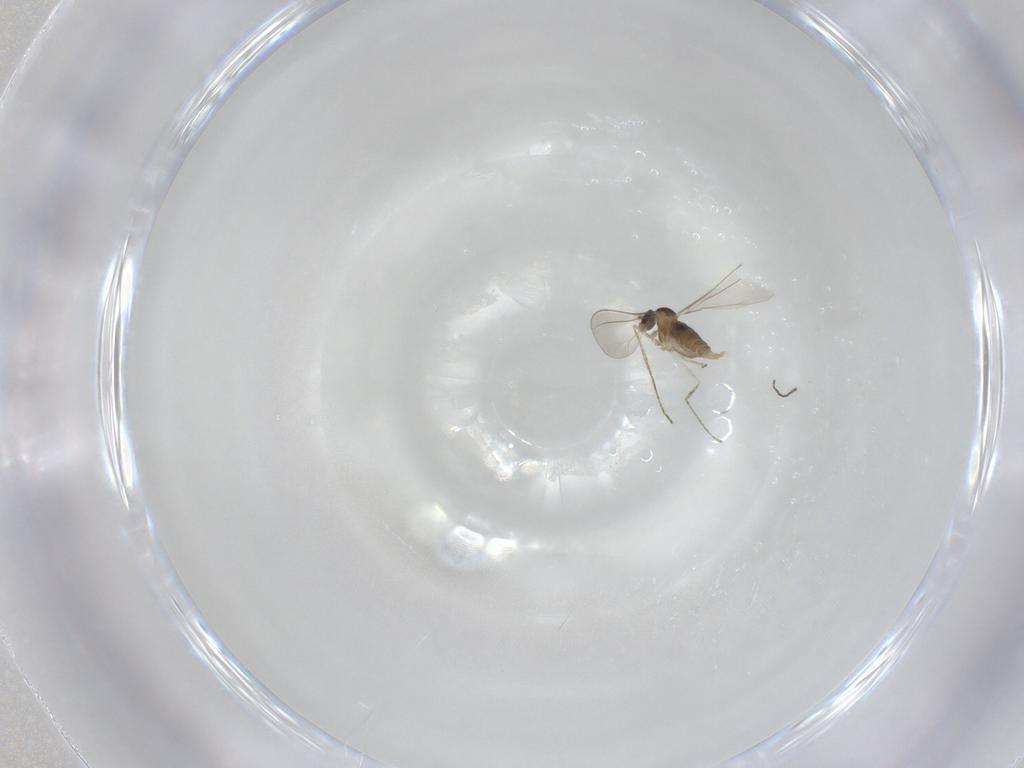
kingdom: Animalia
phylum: Arthropoda
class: Insecta
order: Diptera
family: Cecidomyiidae
